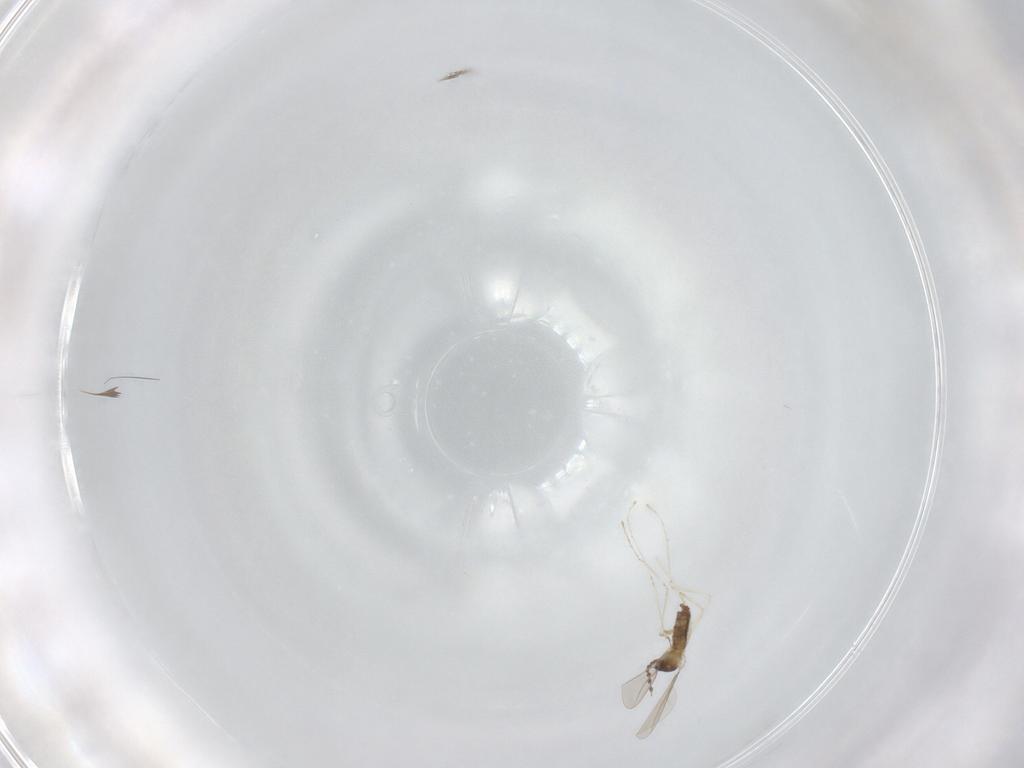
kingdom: Animalia
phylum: Arthropoda
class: Insecta
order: Diptera
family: Cecidomyiidae
